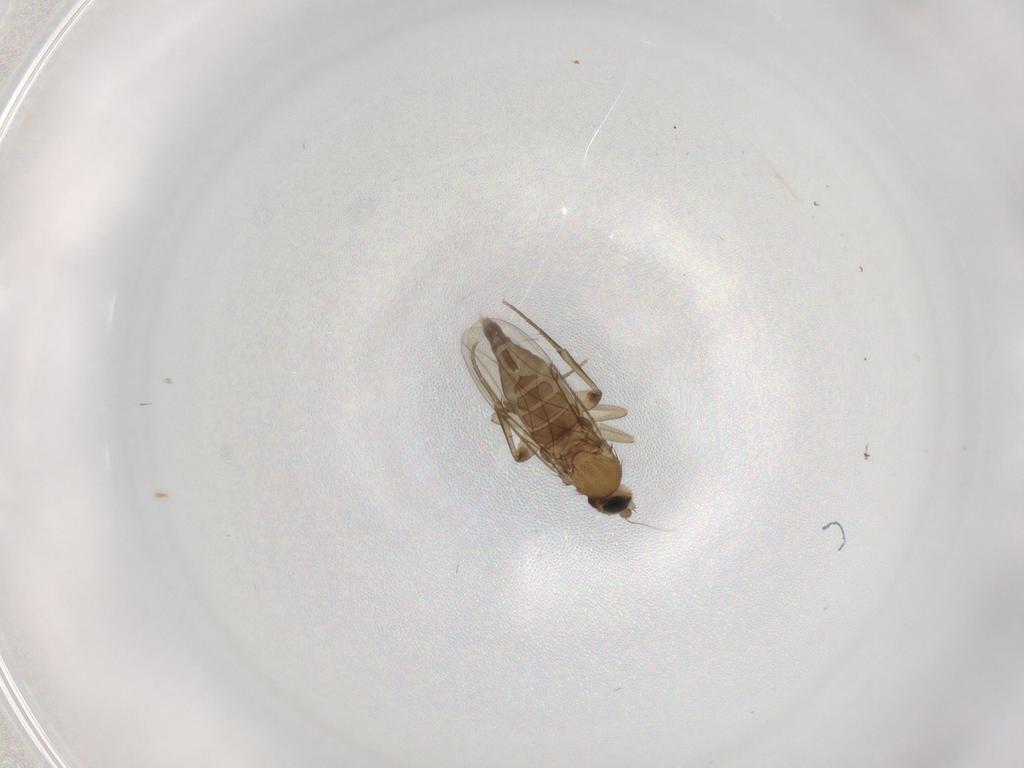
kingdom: Animalia
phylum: Arthropoda
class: Insecta
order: Diptera
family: Phoridae
